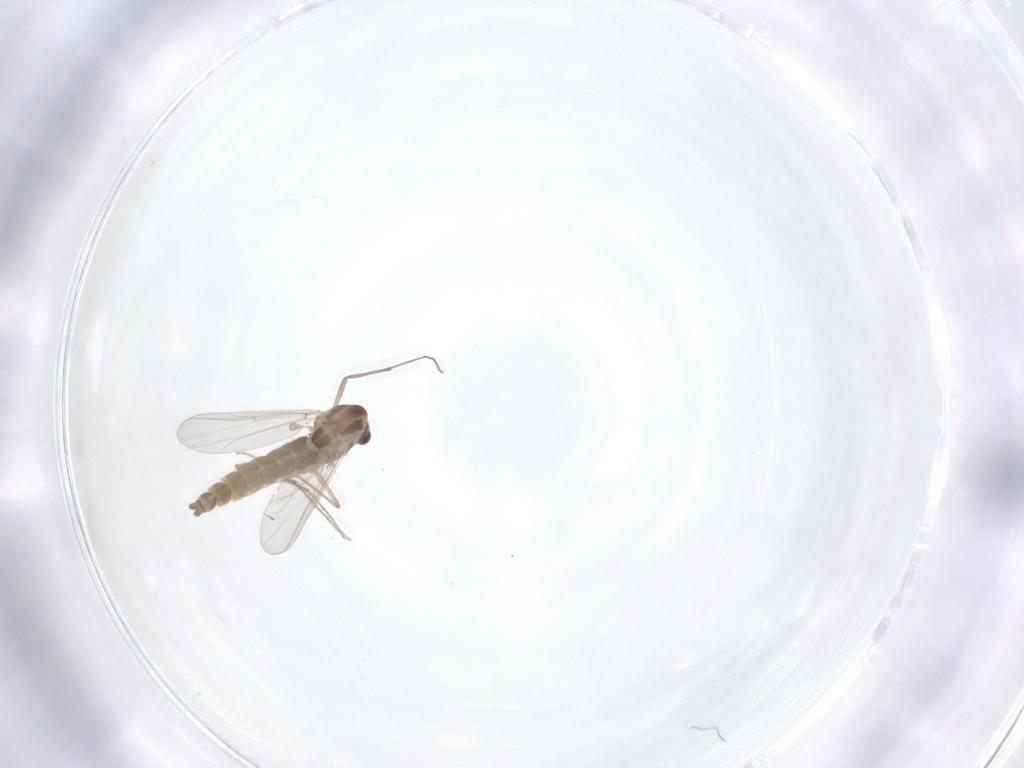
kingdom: Animalia
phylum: Arthropoda
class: Insecta
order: Diptera
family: Chironomidae
